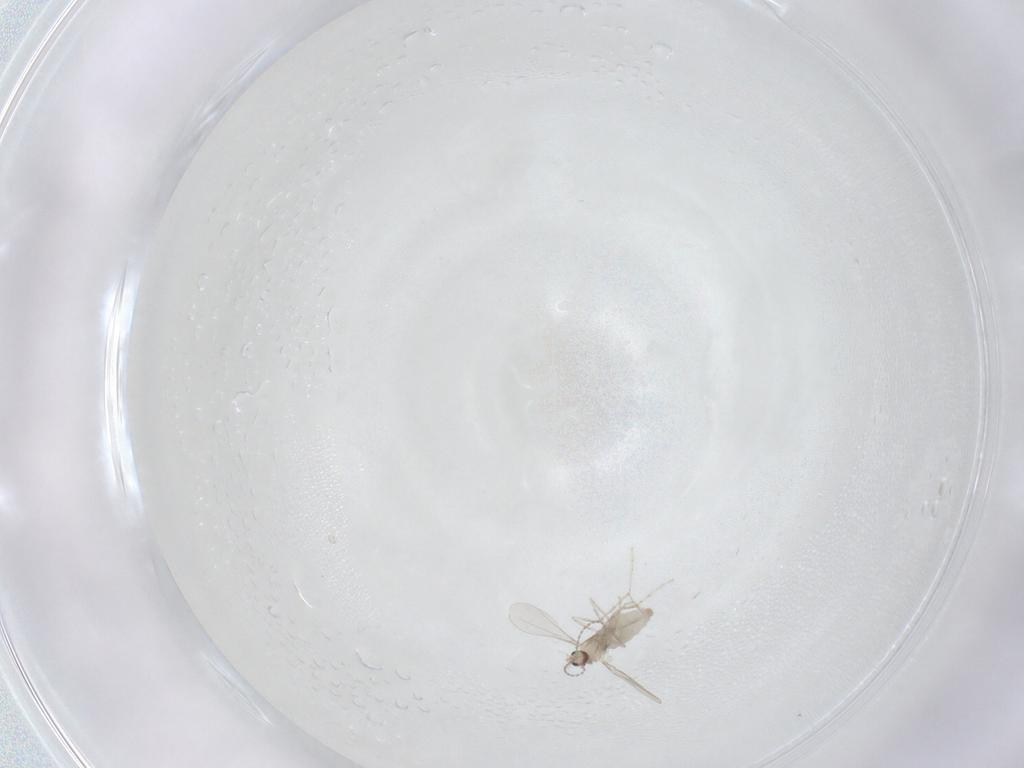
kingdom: Animalia
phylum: Arthropoda
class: Insecta
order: Diptera
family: Cecidomyiidae
